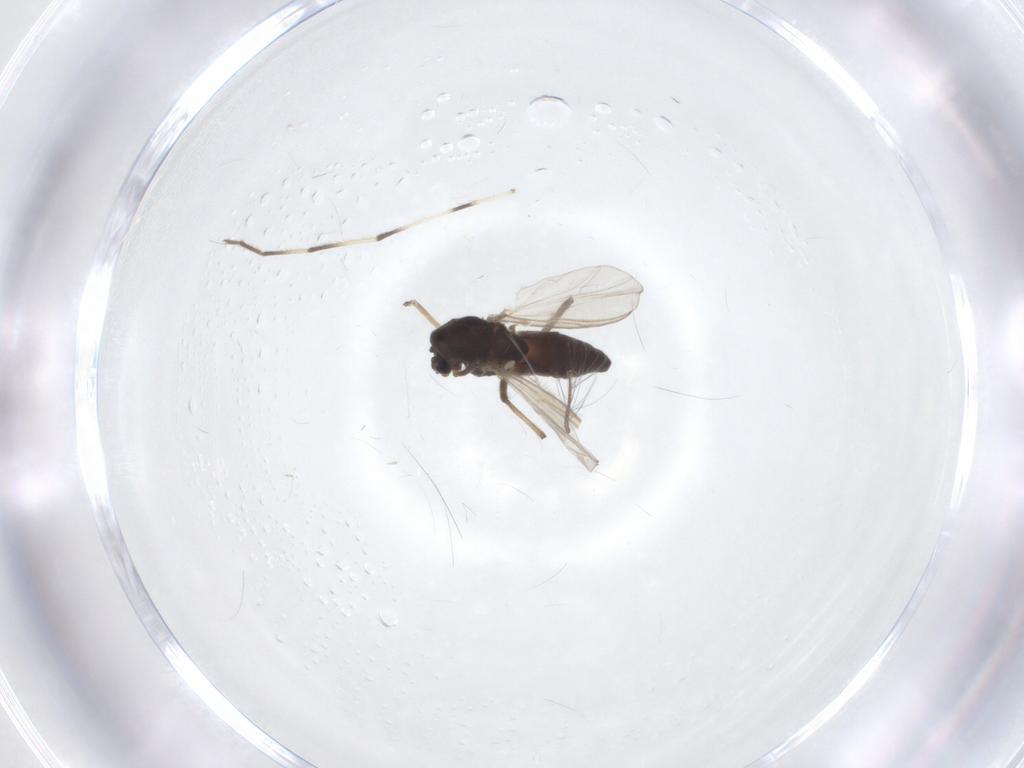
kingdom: Animalia
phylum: Arthropoda
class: Insecta
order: Diptera
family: Chironomidae
